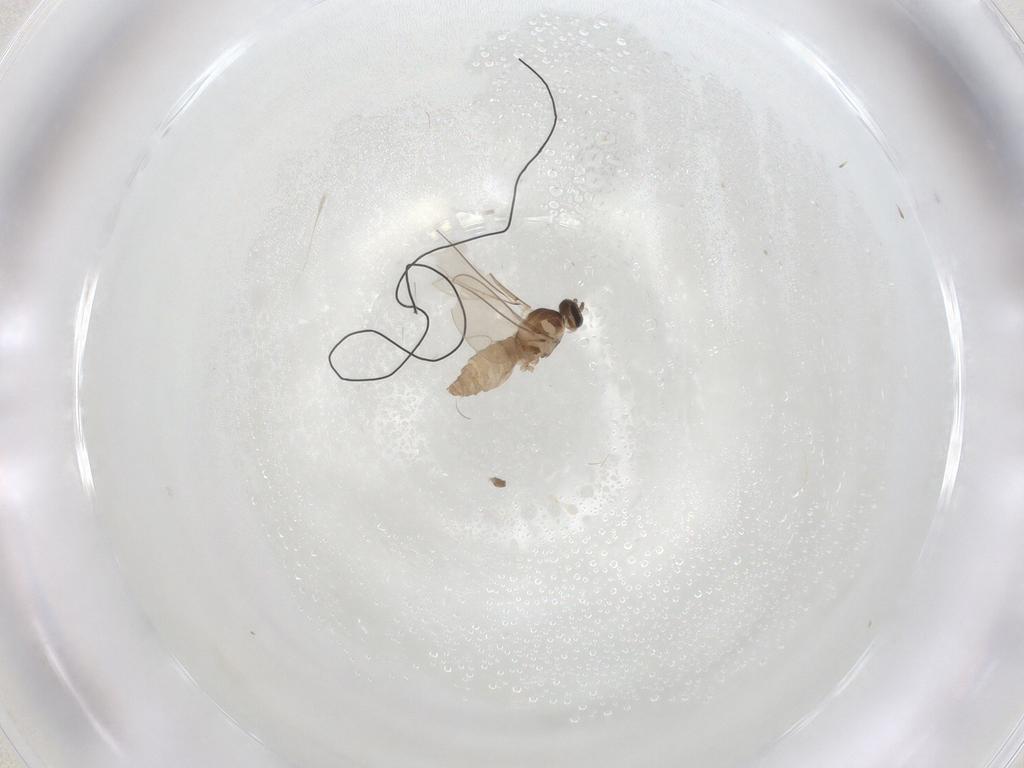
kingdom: Animalia
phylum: Arthropoda
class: Insecta
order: Diptera
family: Cecidomyiidae
